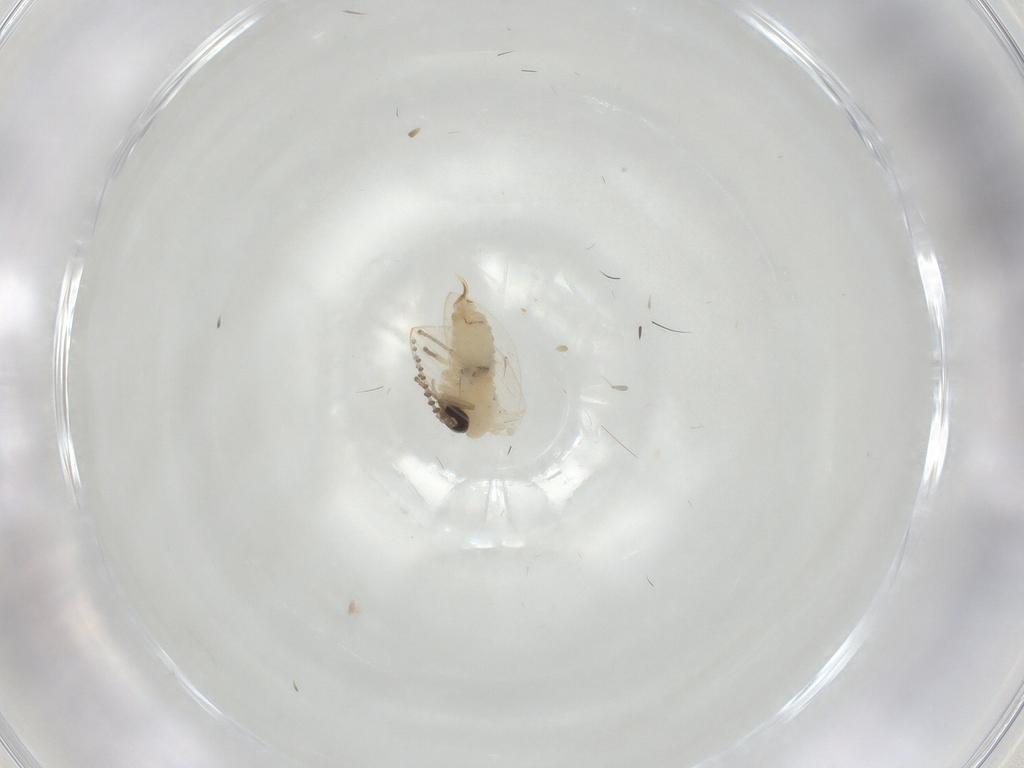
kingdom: Animalia
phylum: Arthropoda
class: Insecta
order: Diptera
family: Psychodidae
